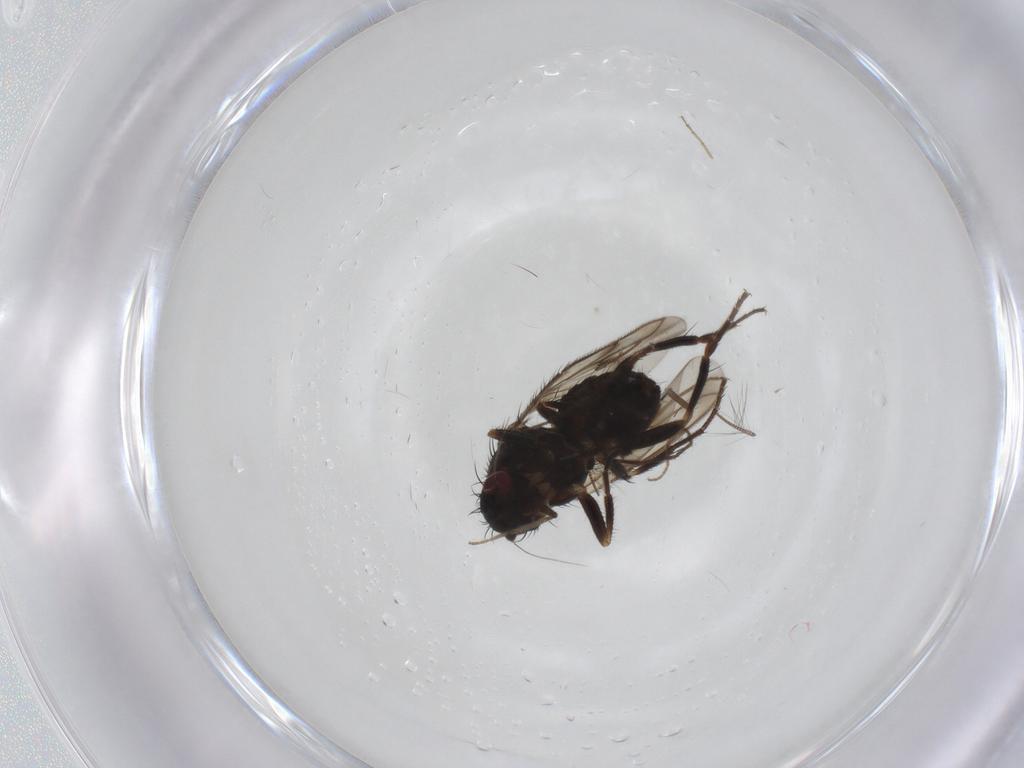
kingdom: Animalia
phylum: Arthropoda
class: Insecta
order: Diptera
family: Sphaeroceridae
